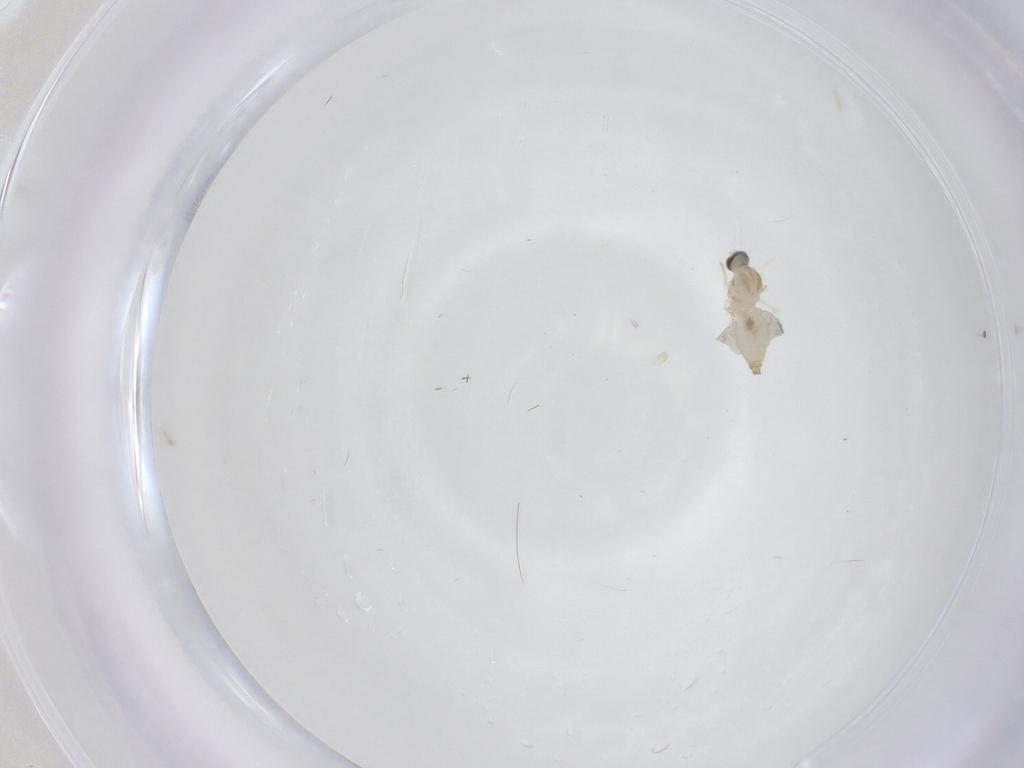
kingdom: Animalia
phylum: Arthropoda
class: Insecta
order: Diptera
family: Cecidomyiidae
